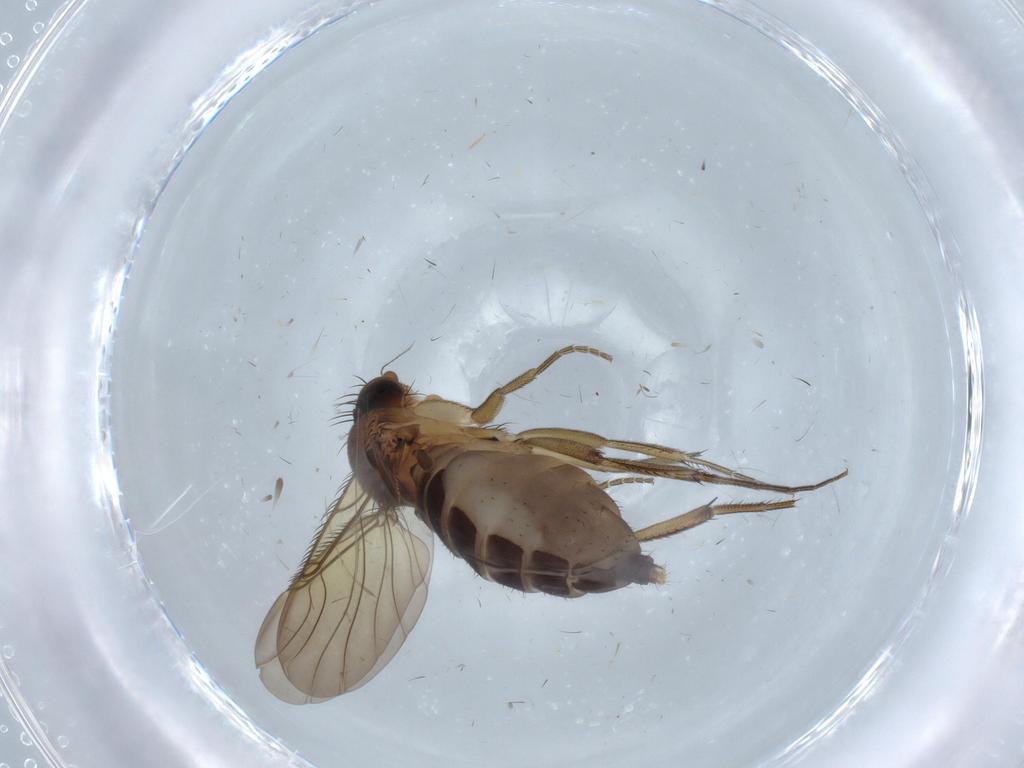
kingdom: Animalia
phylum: Arthropoda
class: Insecta
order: Diptera
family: Phoridae
